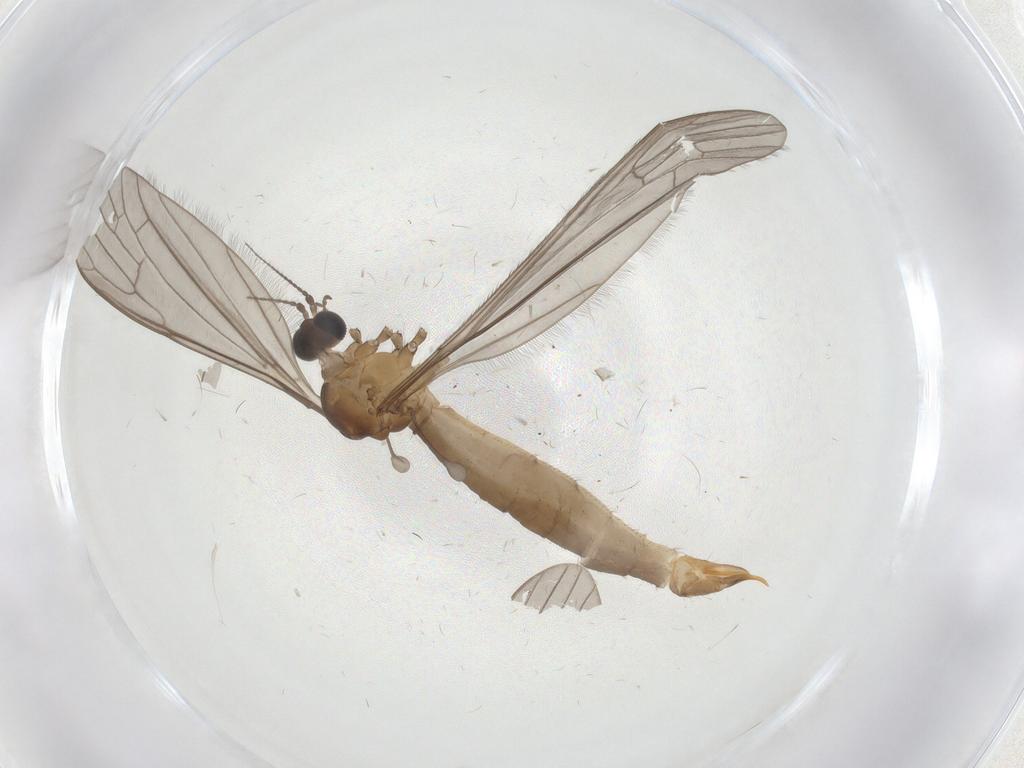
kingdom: Animalia
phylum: Arthropoda
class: Insecta
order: Diptera
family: Limoniidae
